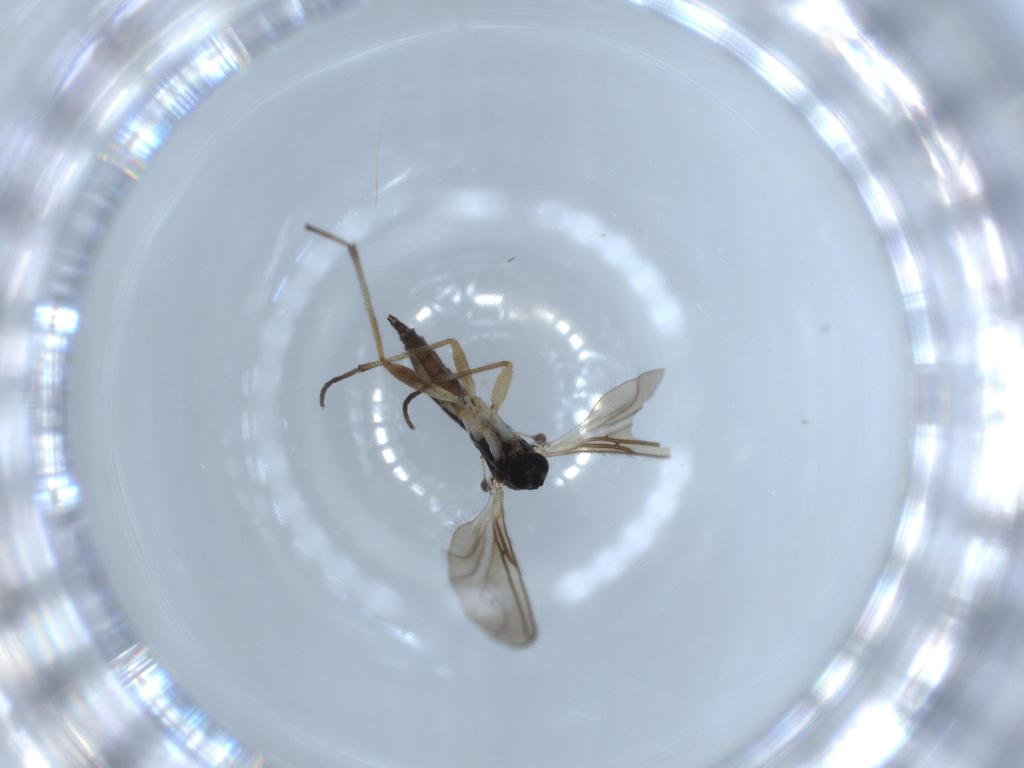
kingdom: Animalia
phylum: Arthropoda
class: Insecta
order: Diptera
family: Sciaridae
